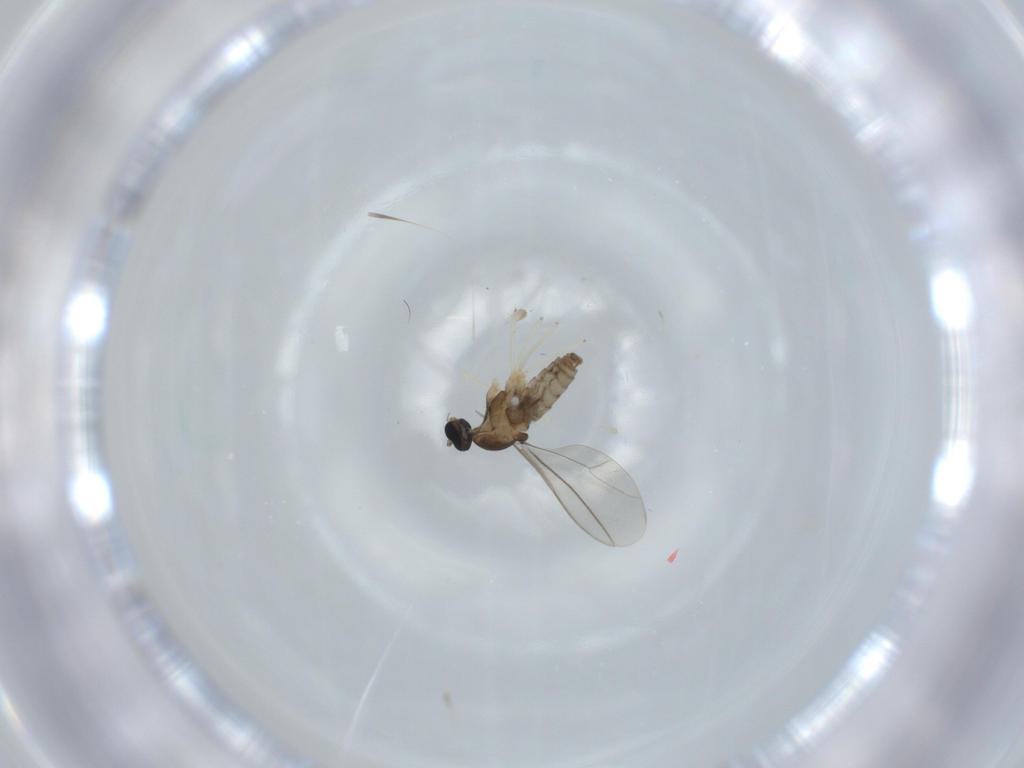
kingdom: Animalia
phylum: Arthropoda
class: Insecta
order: Diptera
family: Cecidomyiidae
